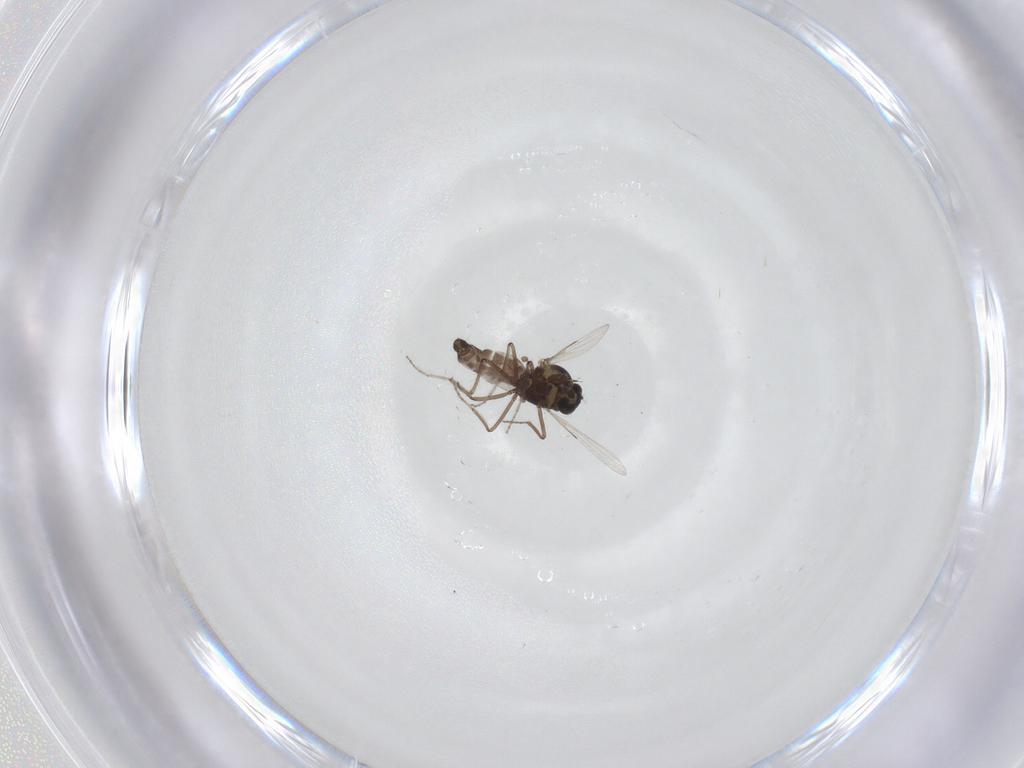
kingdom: Animalia
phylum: Arthropoda
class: Insecta
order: Diptera
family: Ceratopogonidae
